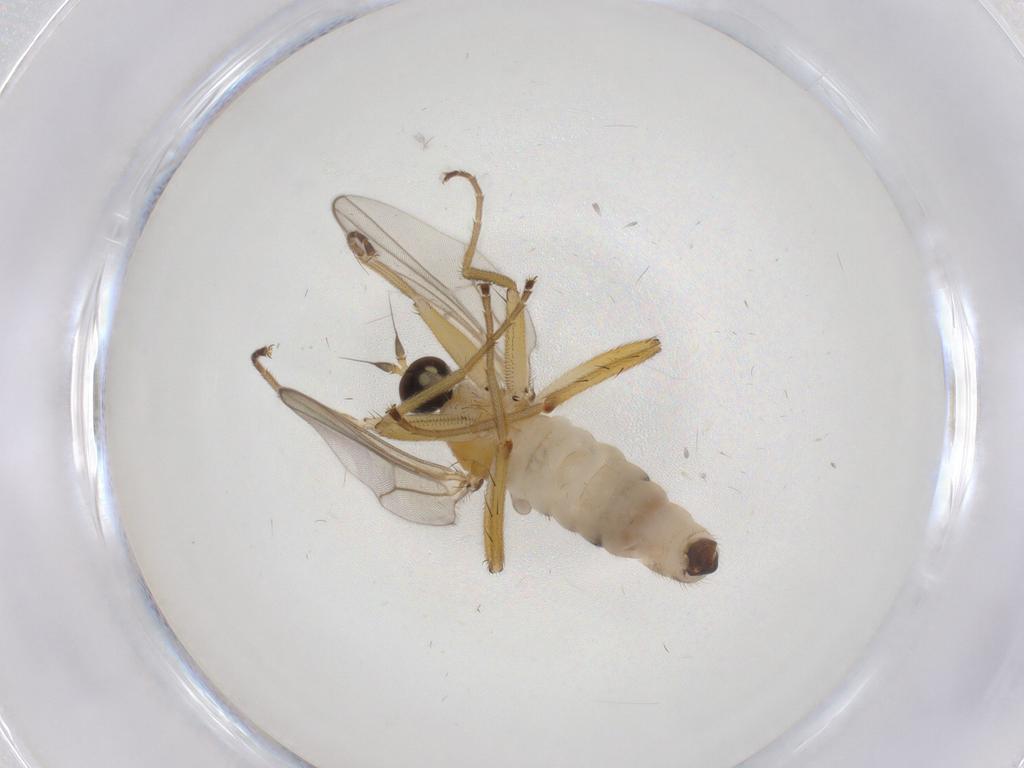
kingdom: Animalia
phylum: Arthropoda
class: Insecta
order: Diptera
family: Hybotidae
